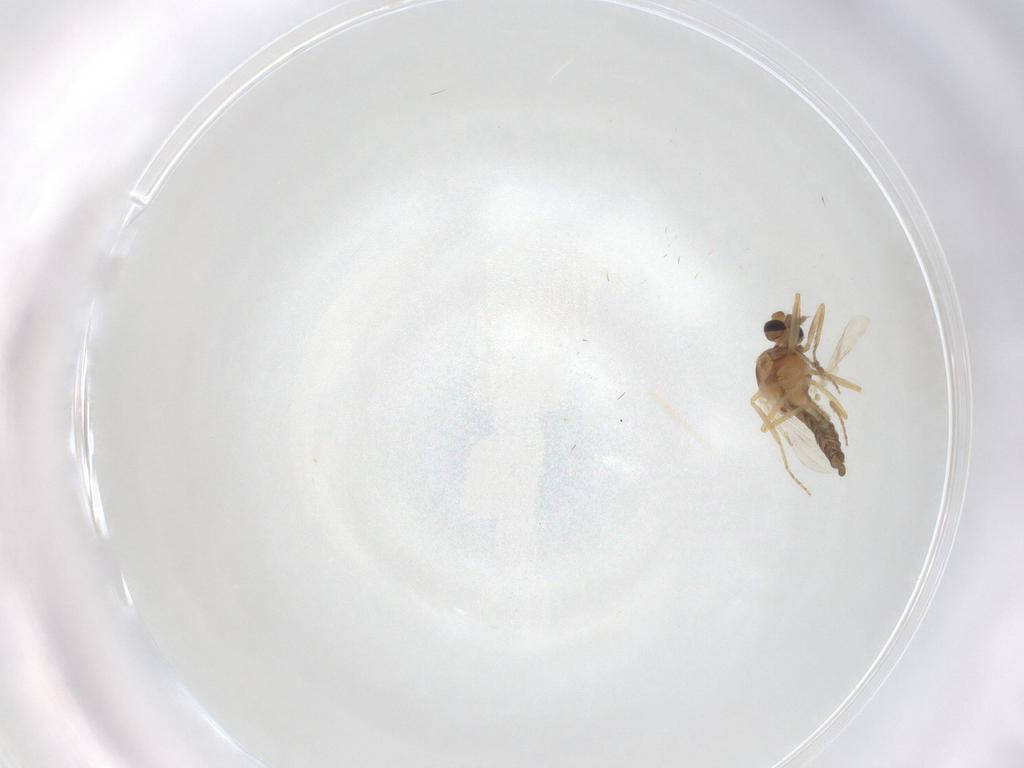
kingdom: Animalia
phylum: Arthropoda
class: Insecta
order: Diptera
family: Ceratopogonidae
